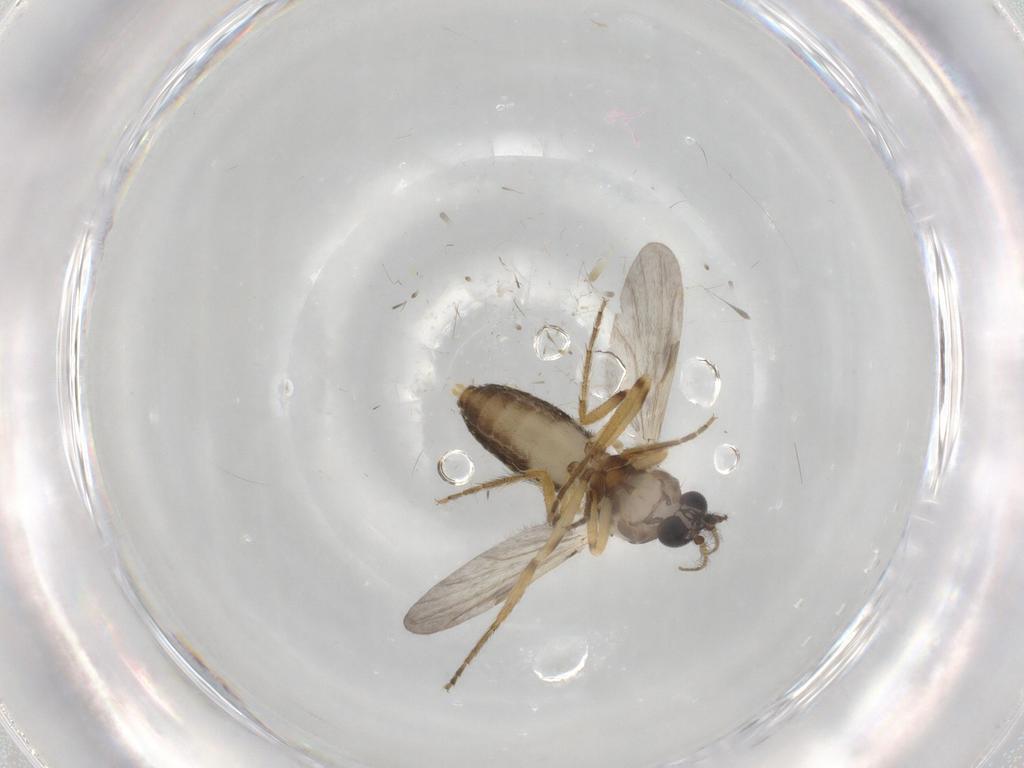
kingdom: Animalia
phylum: Arthropoda
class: Insecta
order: Diptera
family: Ceratopogonidae
